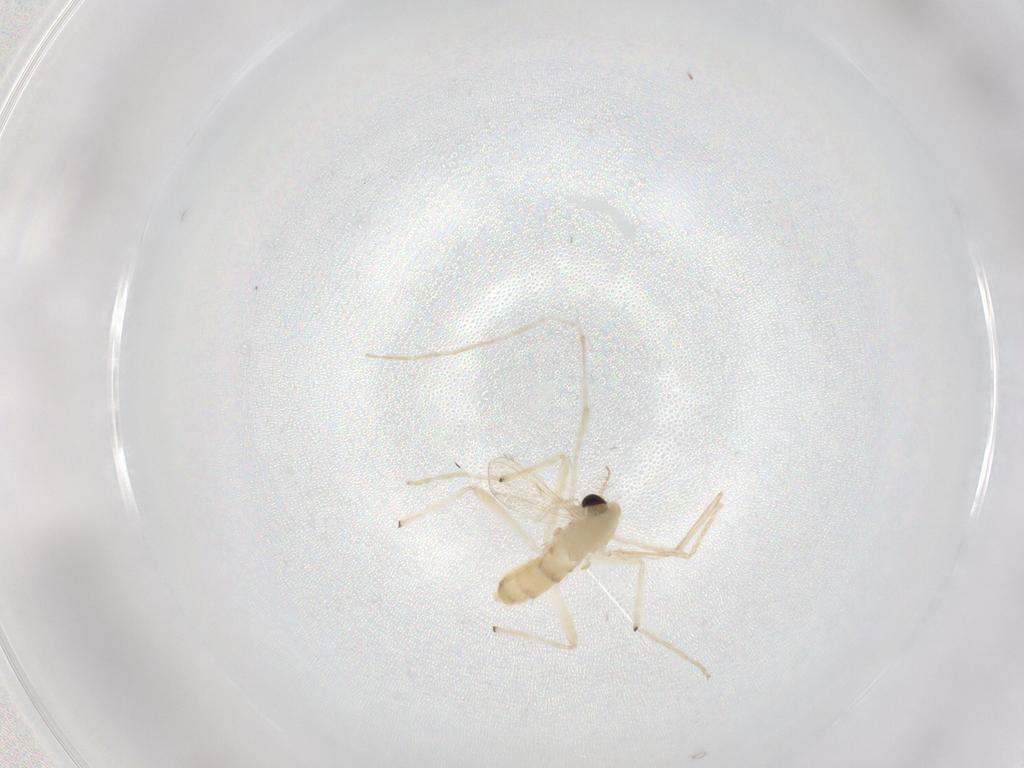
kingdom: Animalia
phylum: Arthropoda
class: Insecta
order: Diptera
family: Chironomidae
